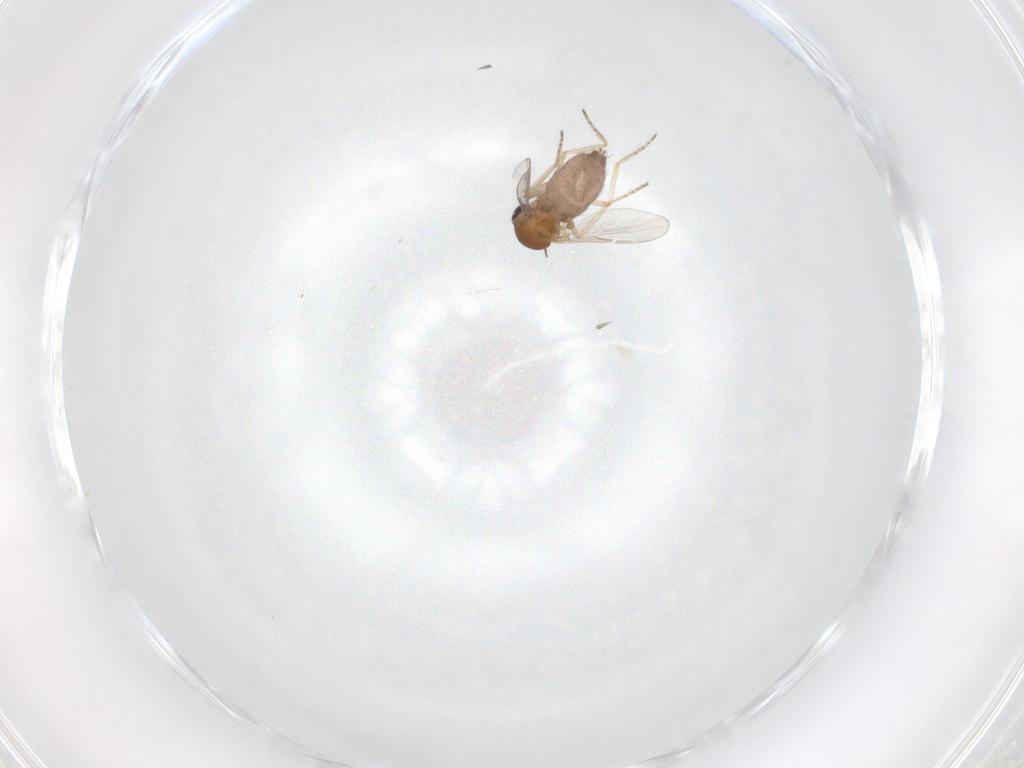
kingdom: Animalia
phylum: Arthropoda
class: Insecta
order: Diptera
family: Ceratopogonidae
